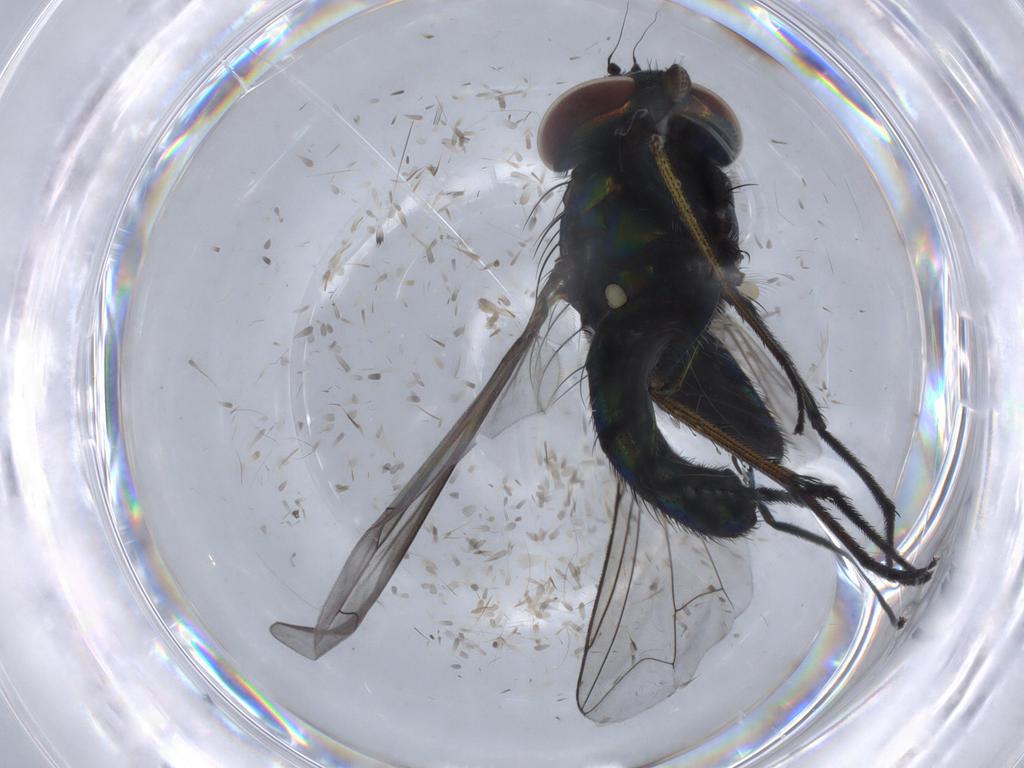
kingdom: Animalia
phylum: Arthropoda
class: Insecta
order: Diptera
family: Dolichopodidae
